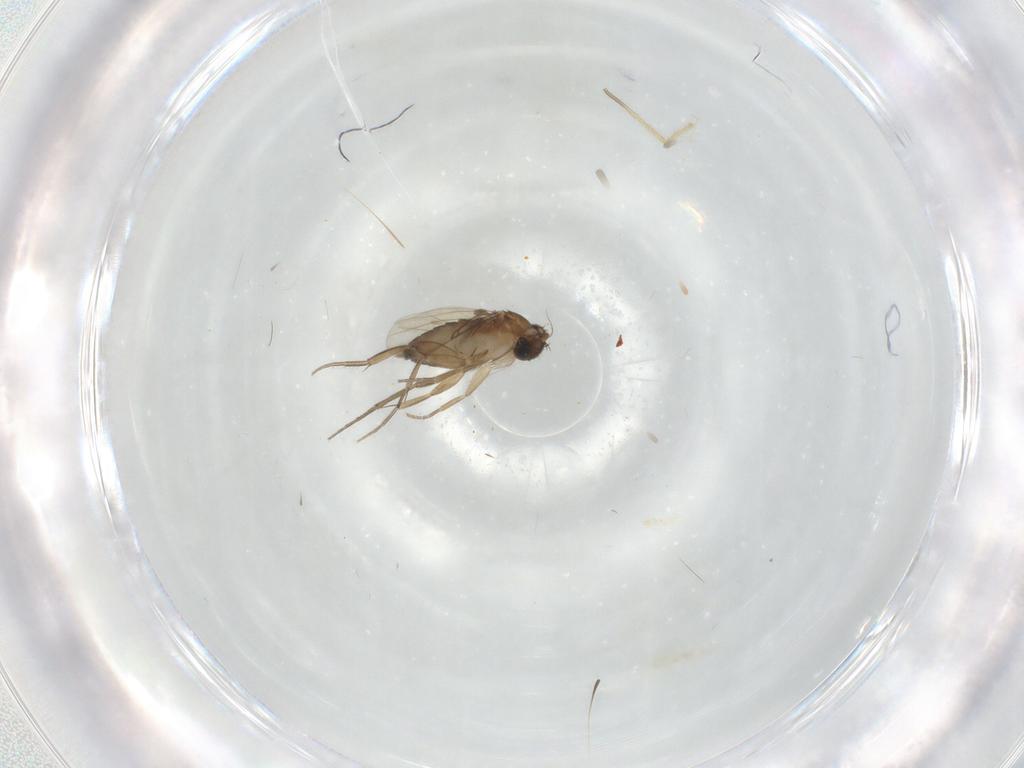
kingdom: Animalia
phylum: Arthropoda
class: Insecta
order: Diptera
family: Chironomidae
